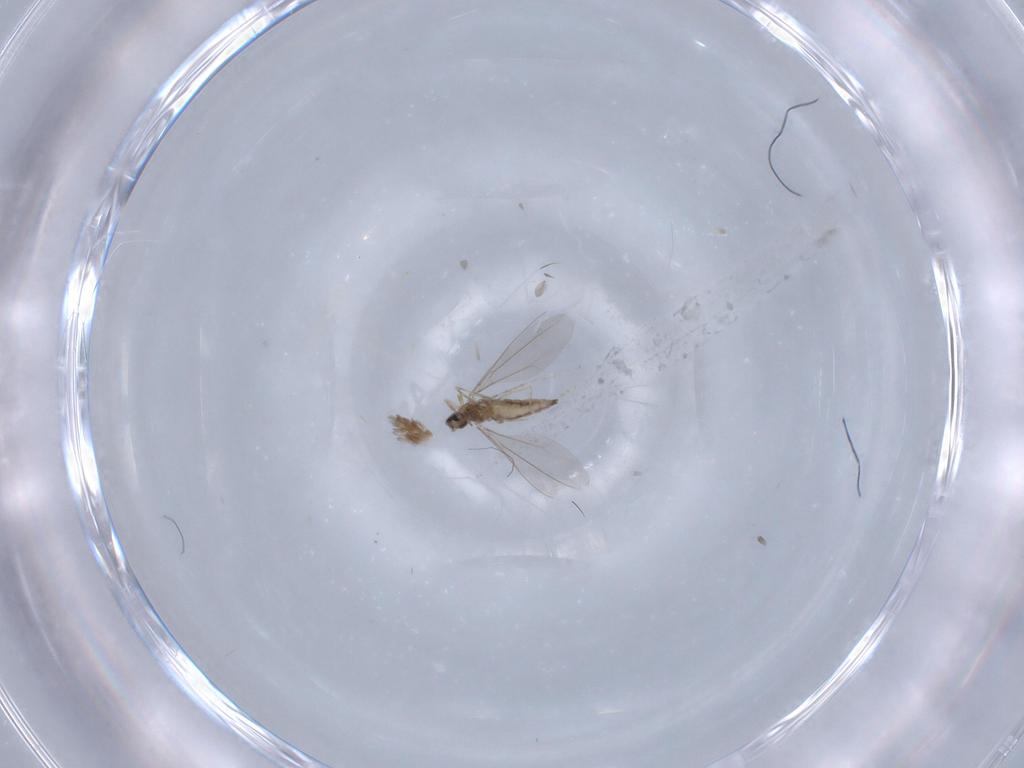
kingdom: Animalia
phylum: Arthropoda
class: Insecta
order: Diptera
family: Cecidomyiidae
